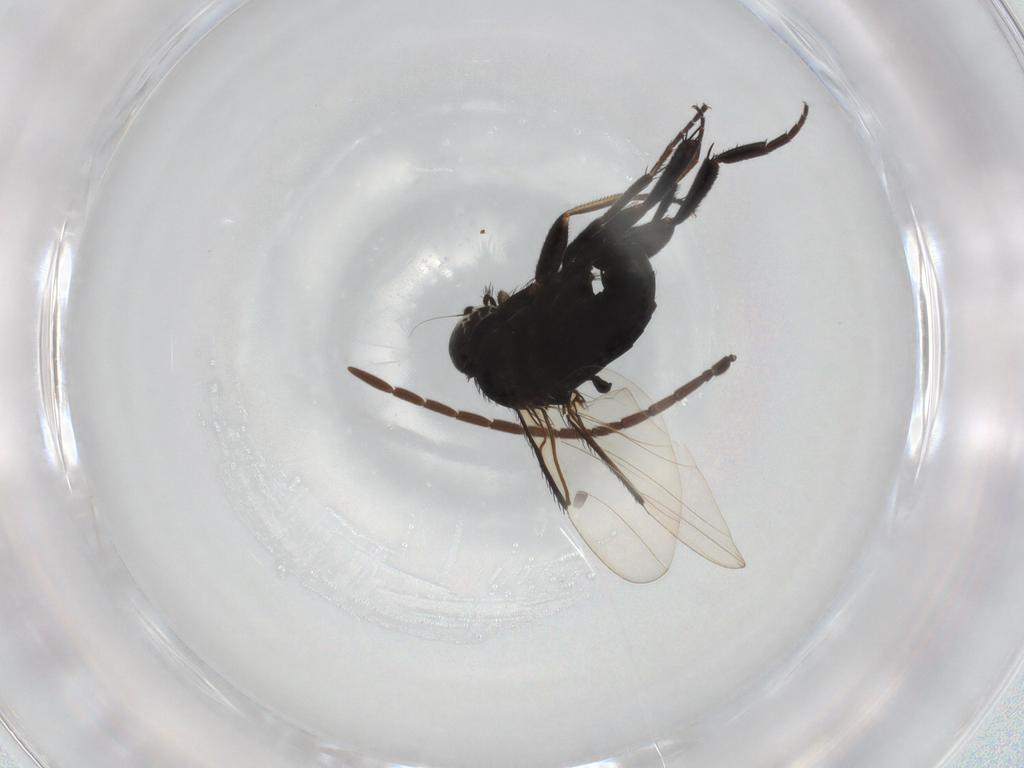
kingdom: Animalia
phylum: Arthropoda
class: Insecta
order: Diptera
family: Phoridae
